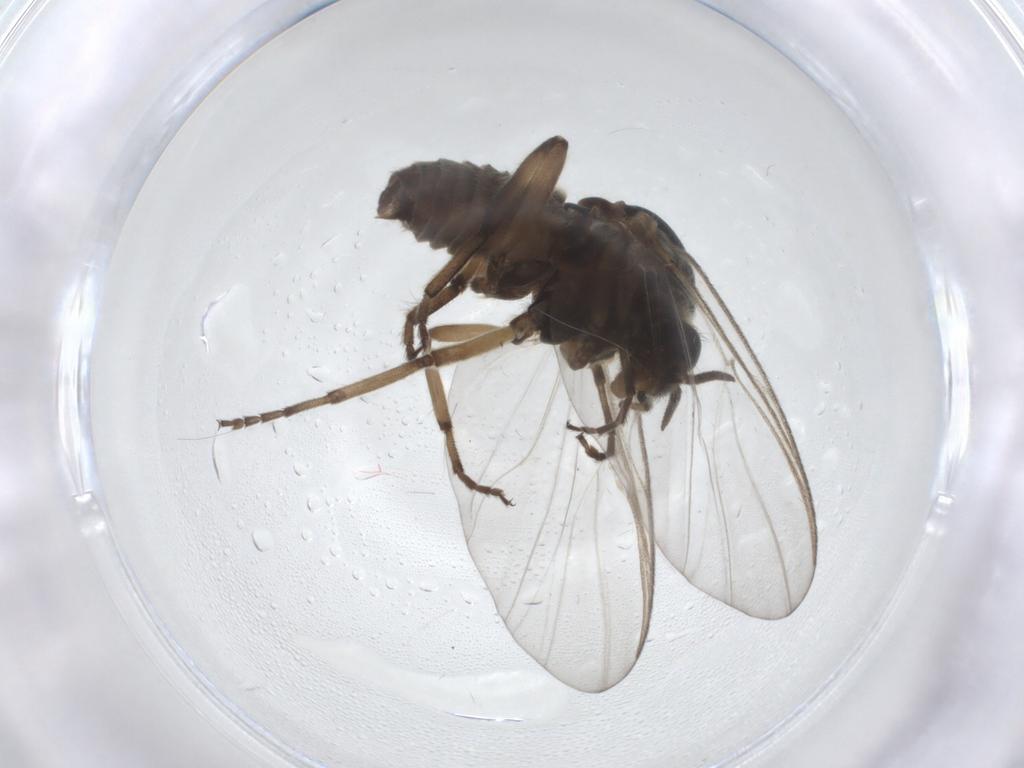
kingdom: Animalia
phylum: Arthropoda
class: Insecta
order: Diptera
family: Simuliidae
